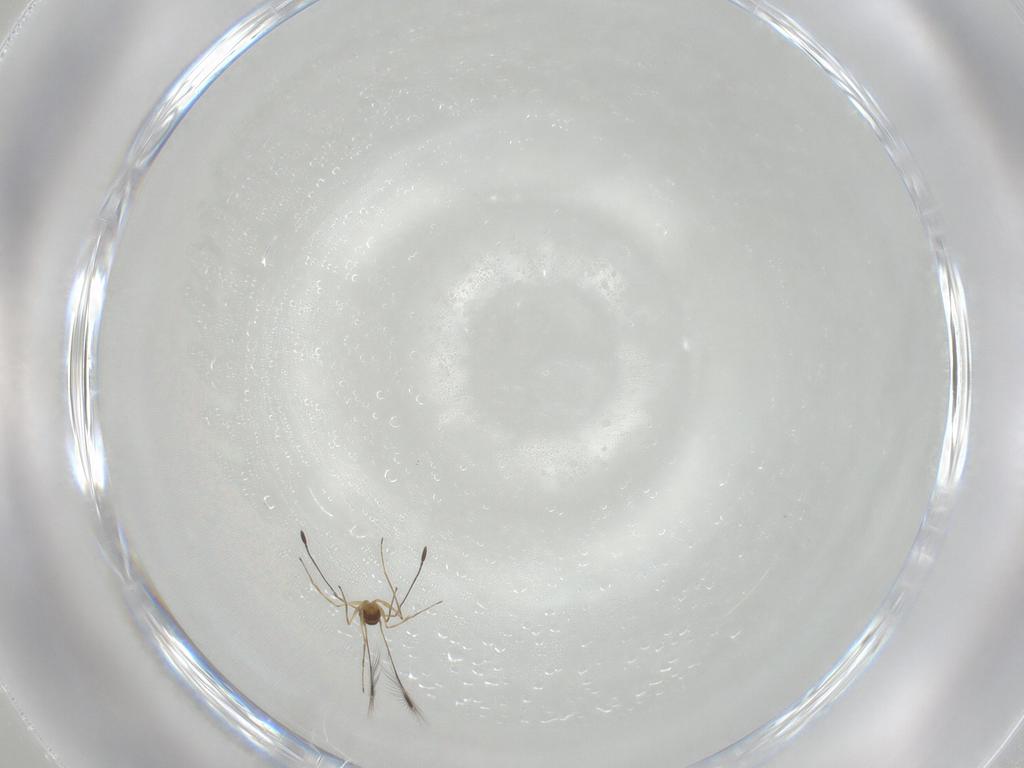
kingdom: Animalia
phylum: Arthropoda
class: Insecta
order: Hymenoptera
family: Mymaridae
